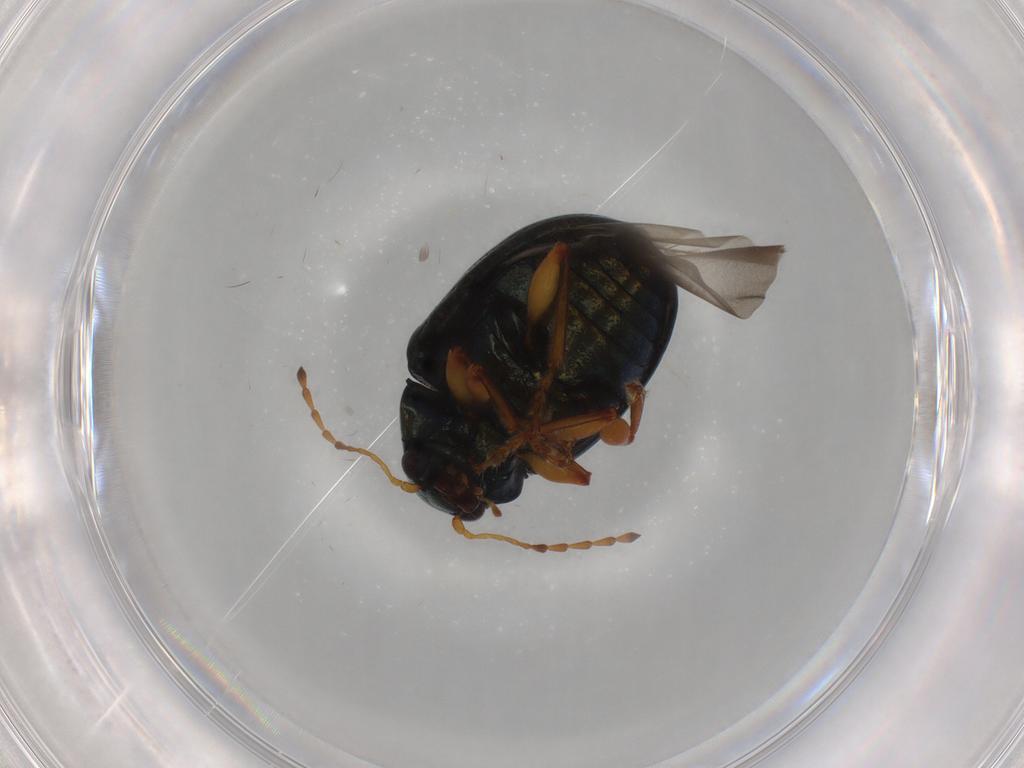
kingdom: Animalia
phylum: Arthropoda
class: Insecta
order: Coleoptera
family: Chrysomelidae
